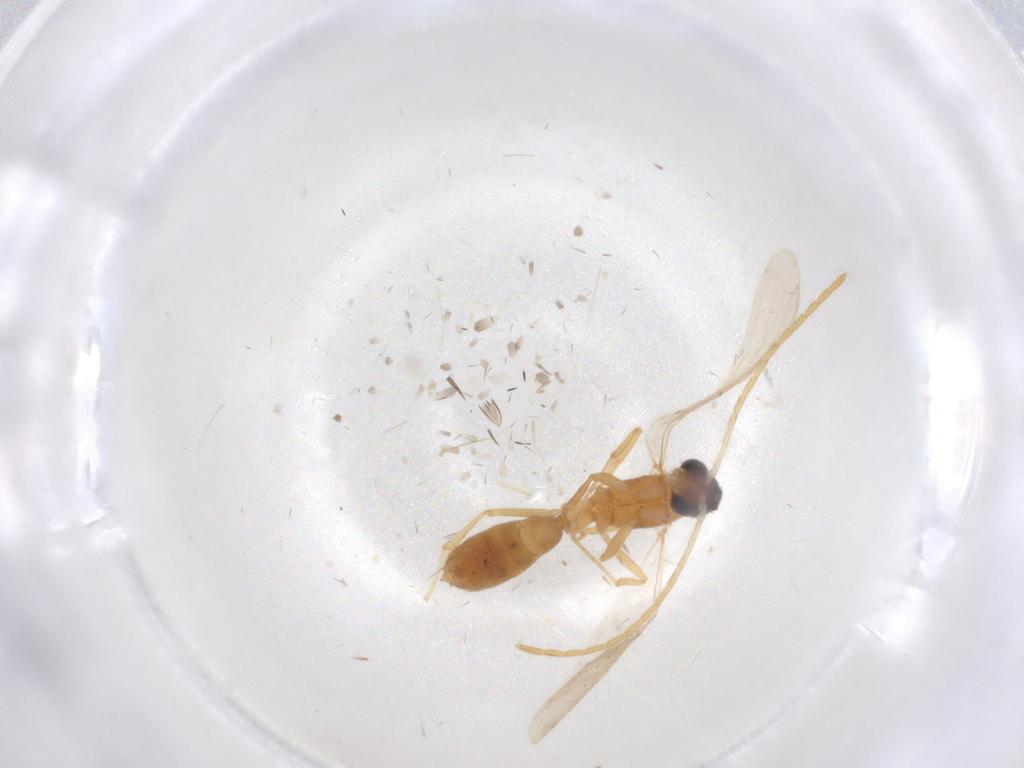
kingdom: Animalia
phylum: Arthropoda
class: Insecta
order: Hymenoptera
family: Formicidae
